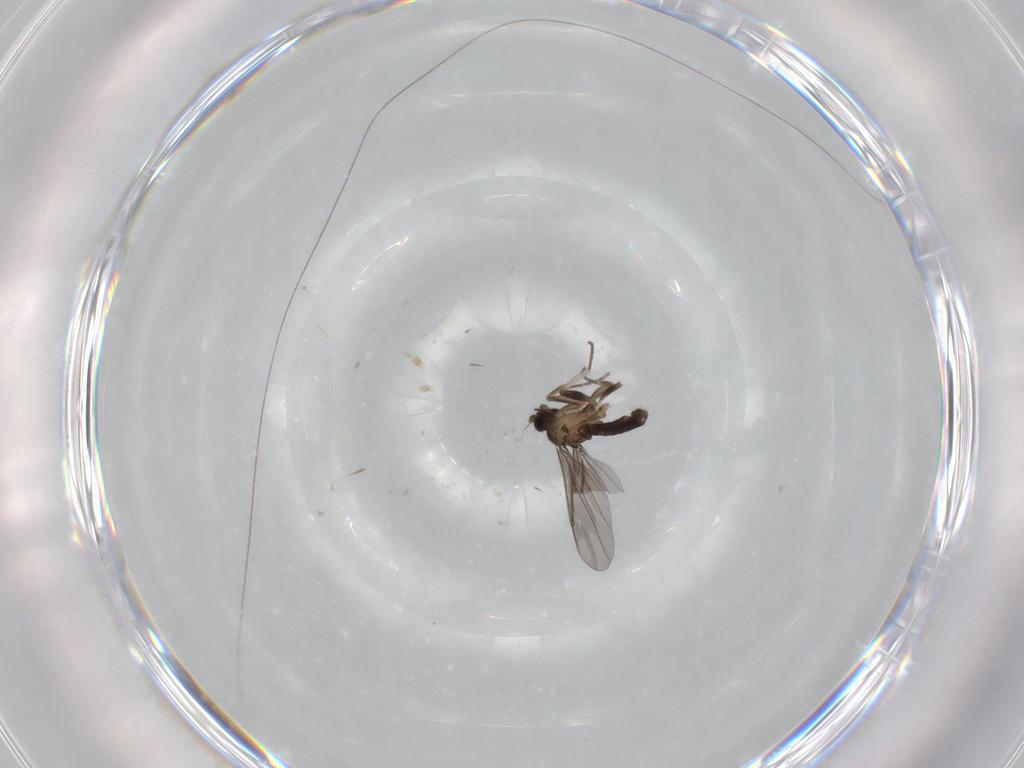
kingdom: Animalia
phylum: Arthropoda
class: Insecta
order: Diptera
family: Phoridae
